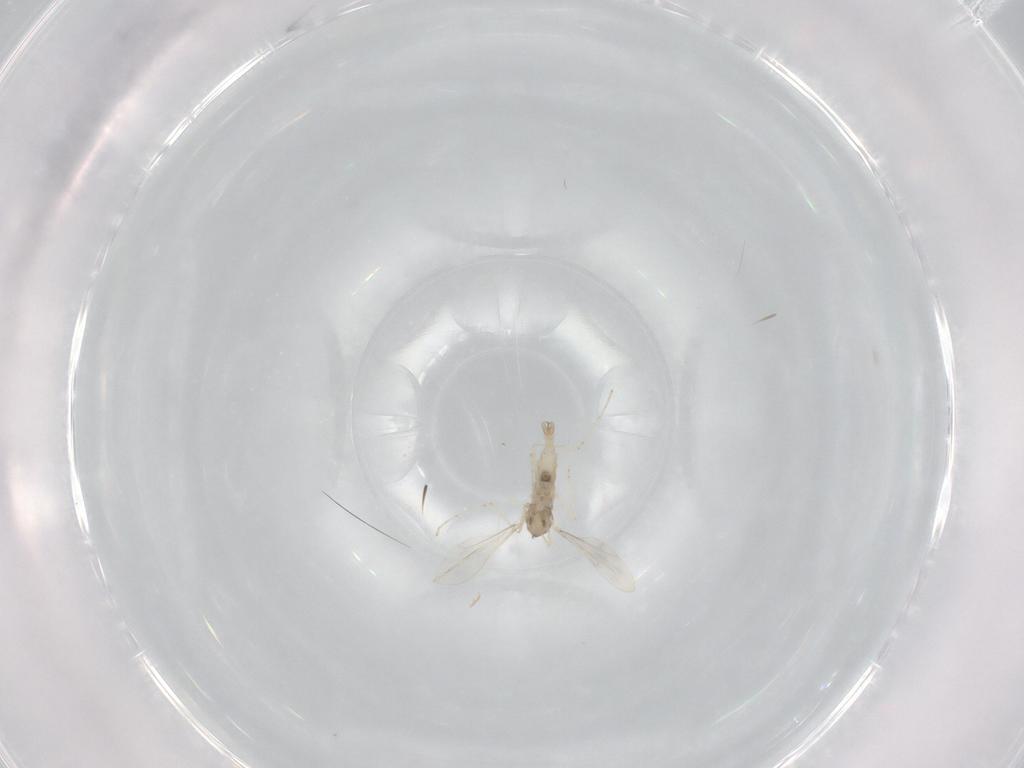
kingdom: Animalia
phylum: Arthropoda
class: Insecta
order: Diptera
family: Cecidomyiidae
